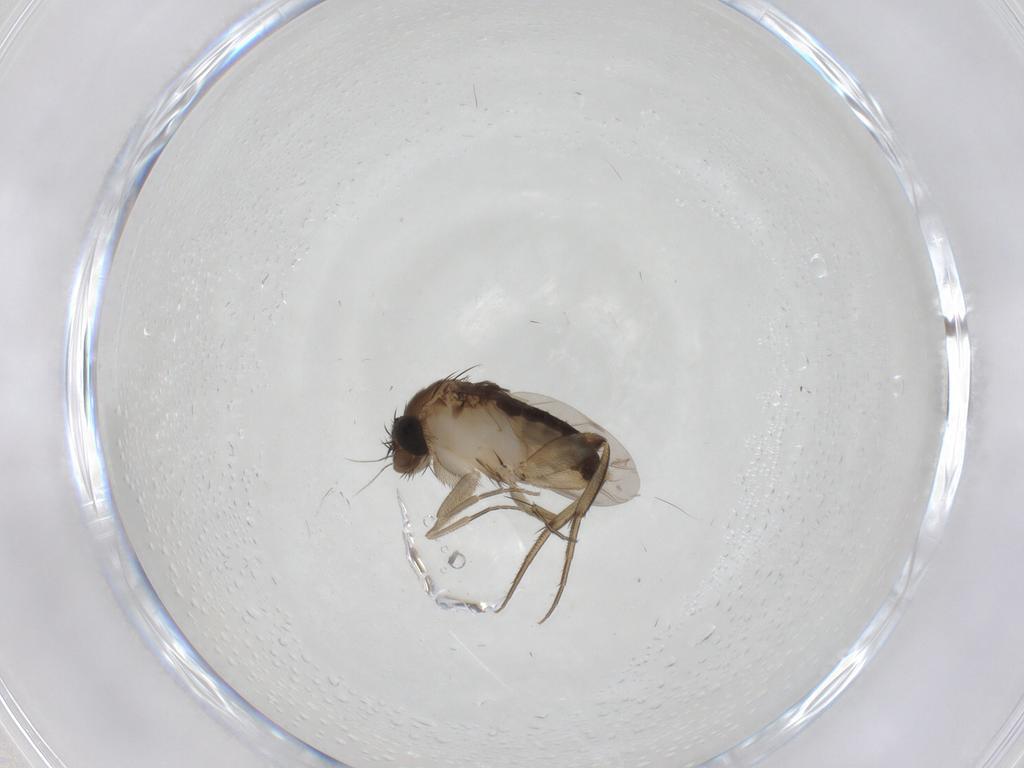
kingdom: Animalia
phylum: Arthropoda
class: Insecta
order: Diptera
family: Phoridae
